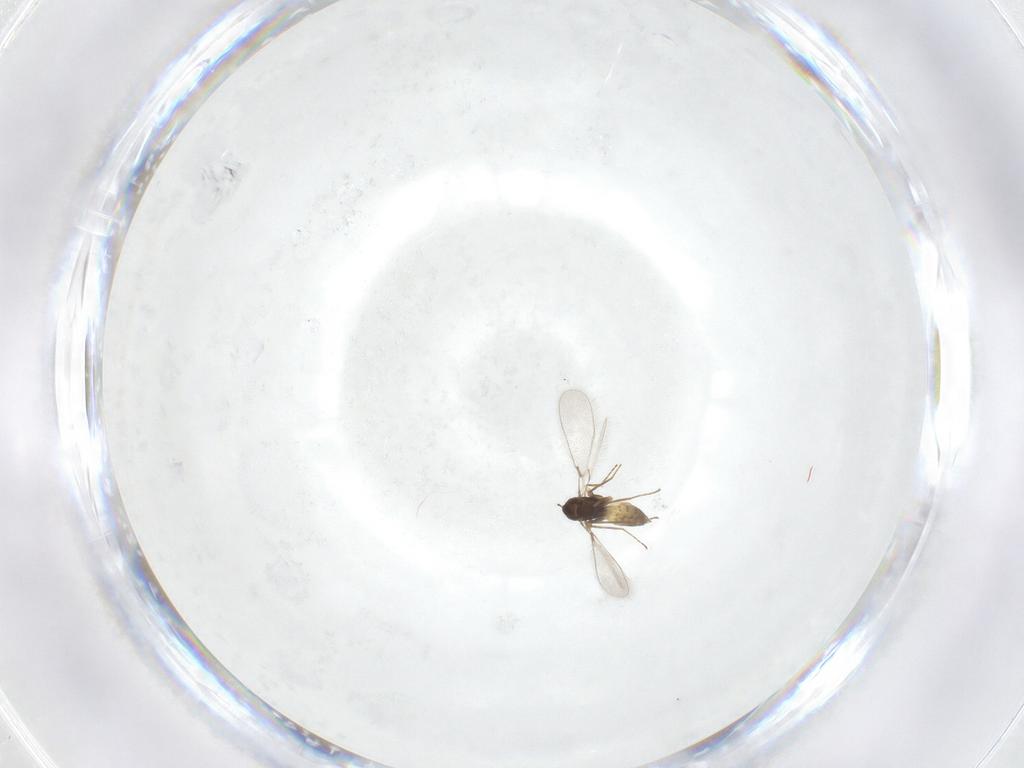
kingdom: Animalia
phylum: Arthropoda
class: Insecta
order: Hymenoptera
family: Mymaridae
